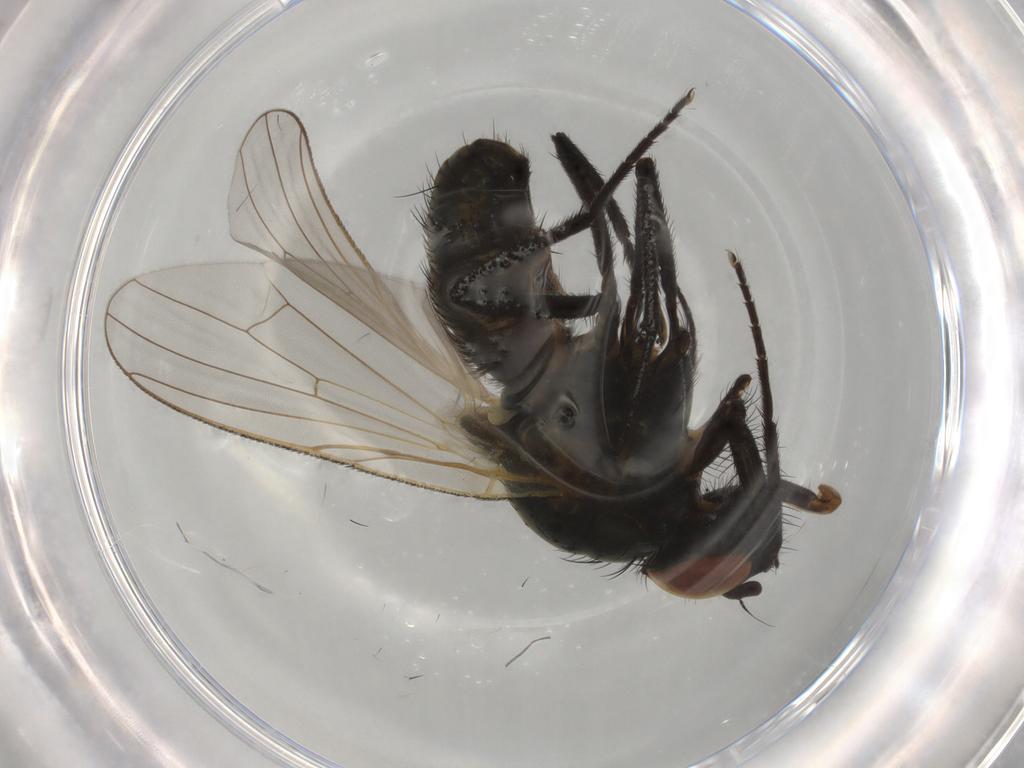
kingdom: Animalia
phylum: Arthropoda
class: Insecta
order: Diptera
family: Anthomyiidae
